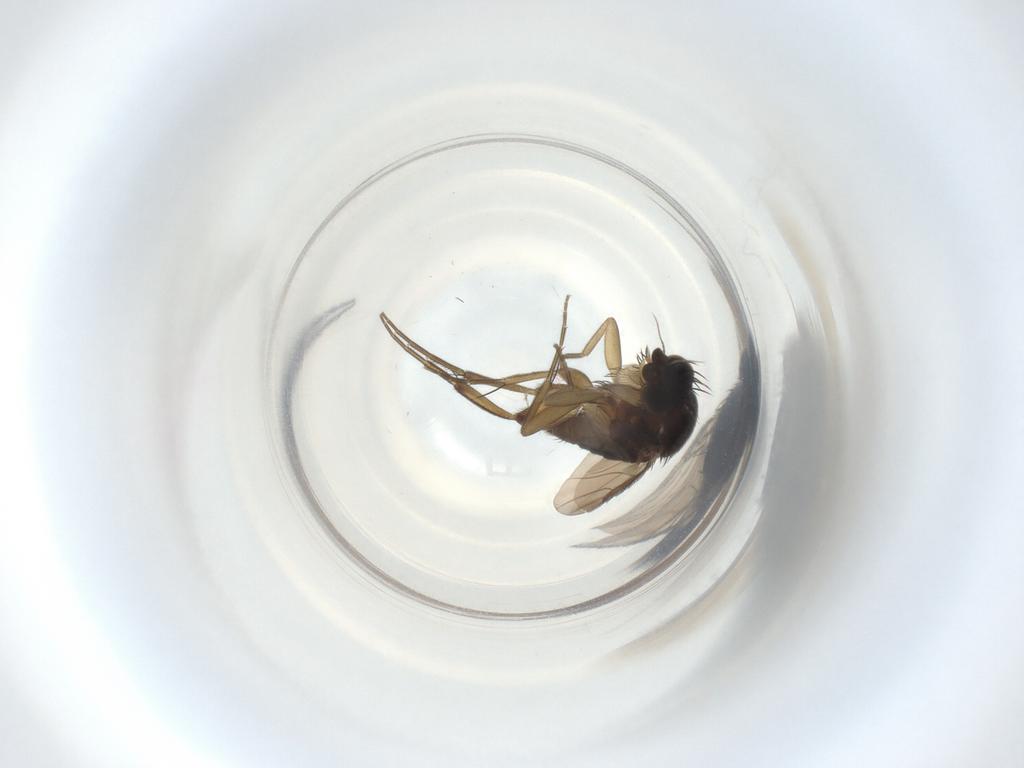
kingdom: Animalia
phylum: Arthropoda
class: Insecta
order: Diptera
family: Phoridae
